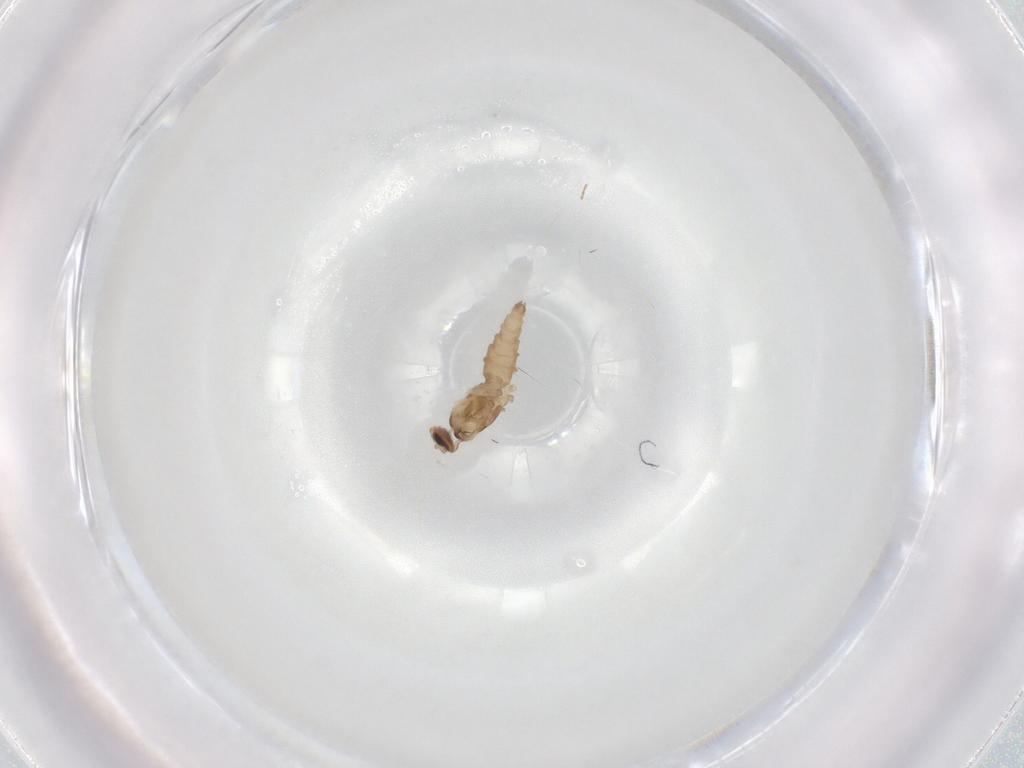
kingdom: Animalia
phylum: Arthropoda
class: Insecta
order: Diptera
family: Cecidomyiidae
